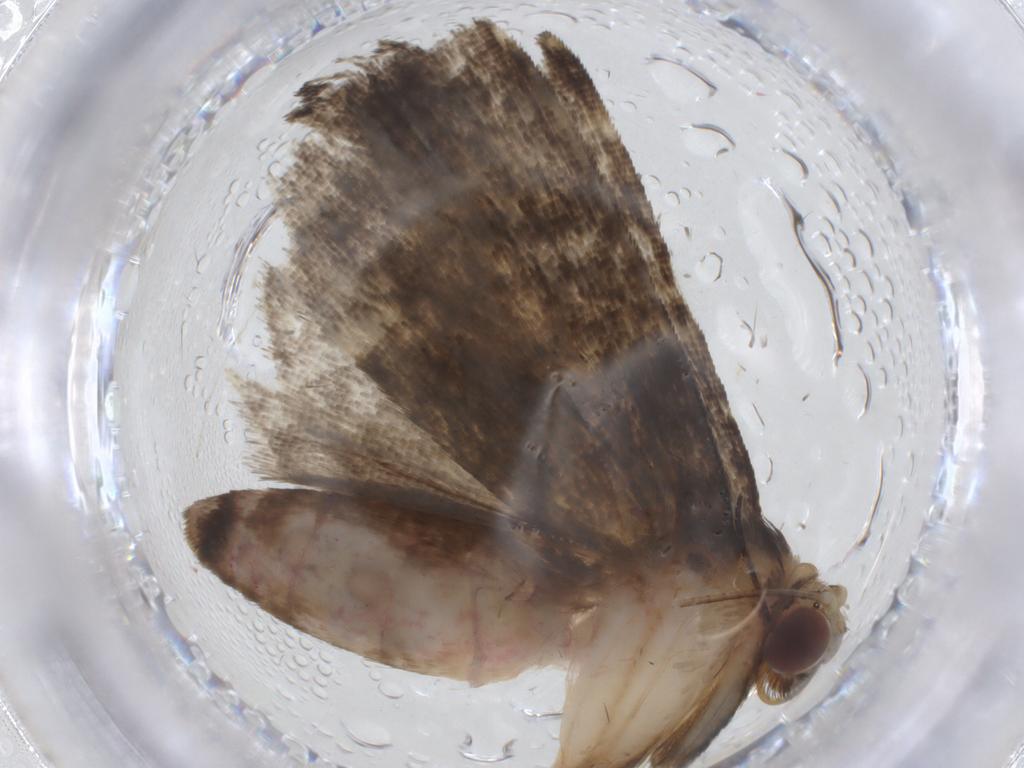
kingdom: Animalia
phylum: Arthropoda
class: Insecta
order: Lepidoptera
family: Noctuidae
